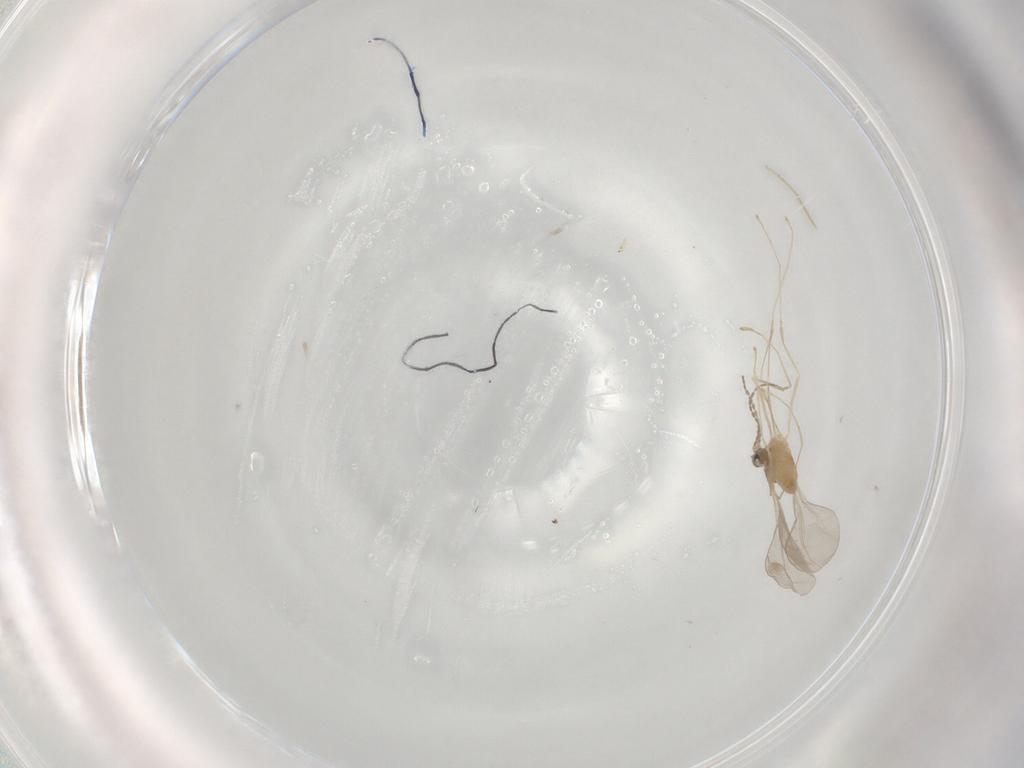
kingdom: Animalia
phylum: Arthropoda
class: Insecta
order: Diptera
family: Cecidomyiidae
